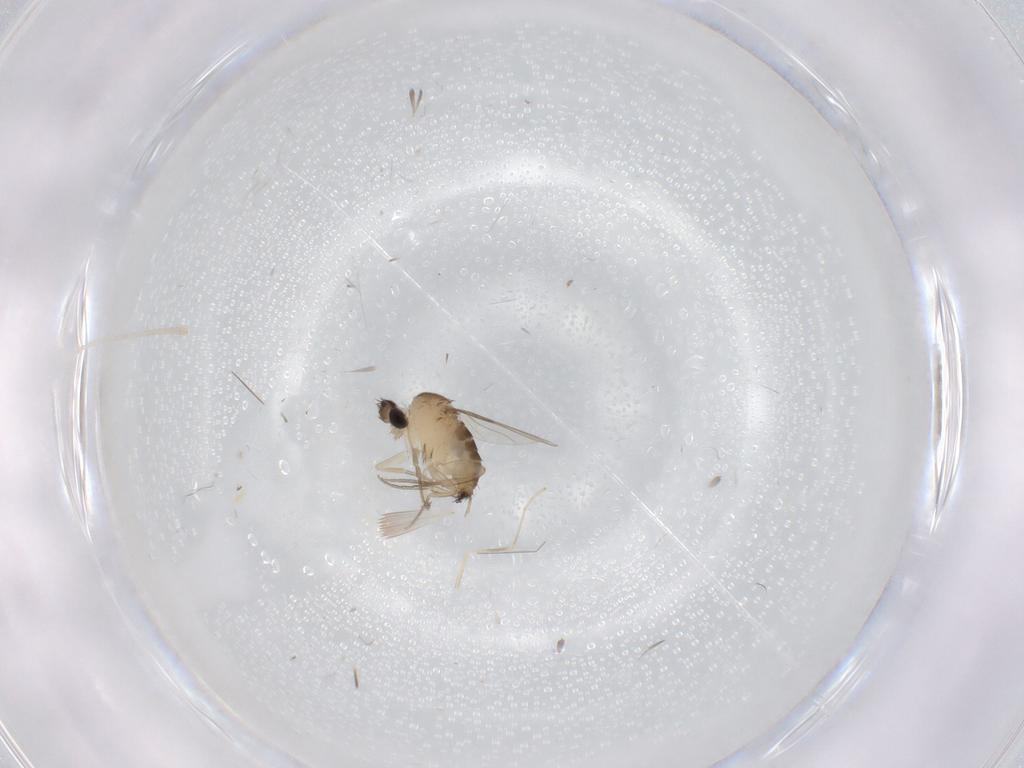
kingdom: Animalia
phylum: Arthropoda
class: Insecta
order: Diptera
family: Phoridae
